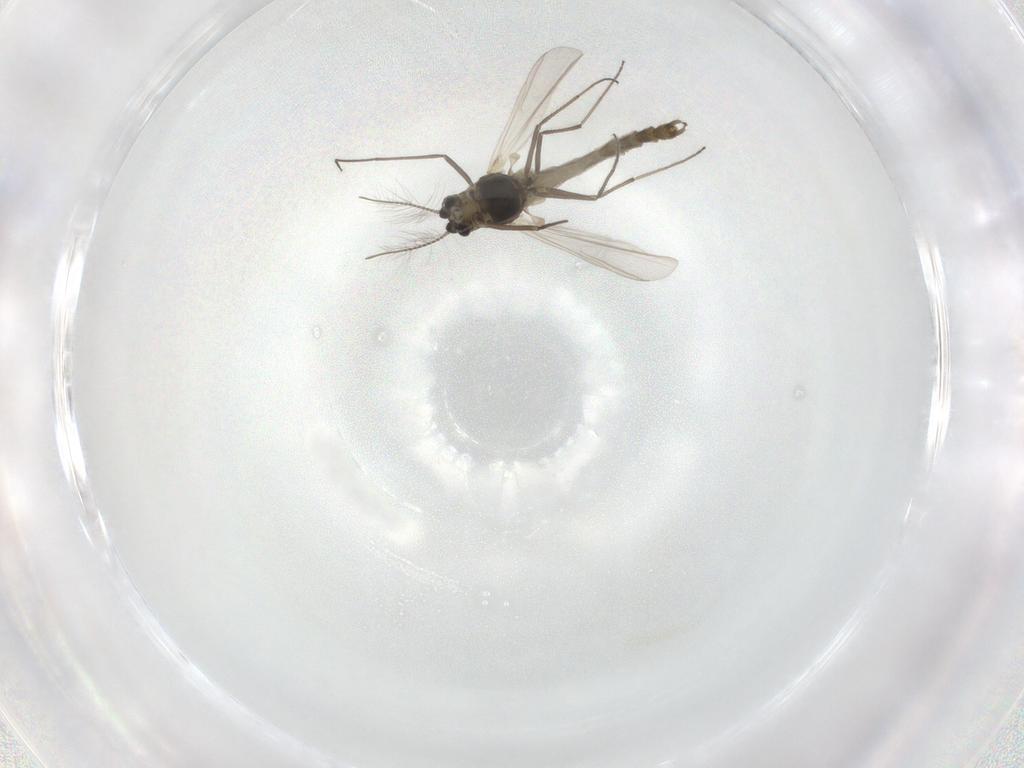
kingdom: Animalia
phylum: Arthropoda
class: Insecta
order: Diptera
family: Chironomidae
